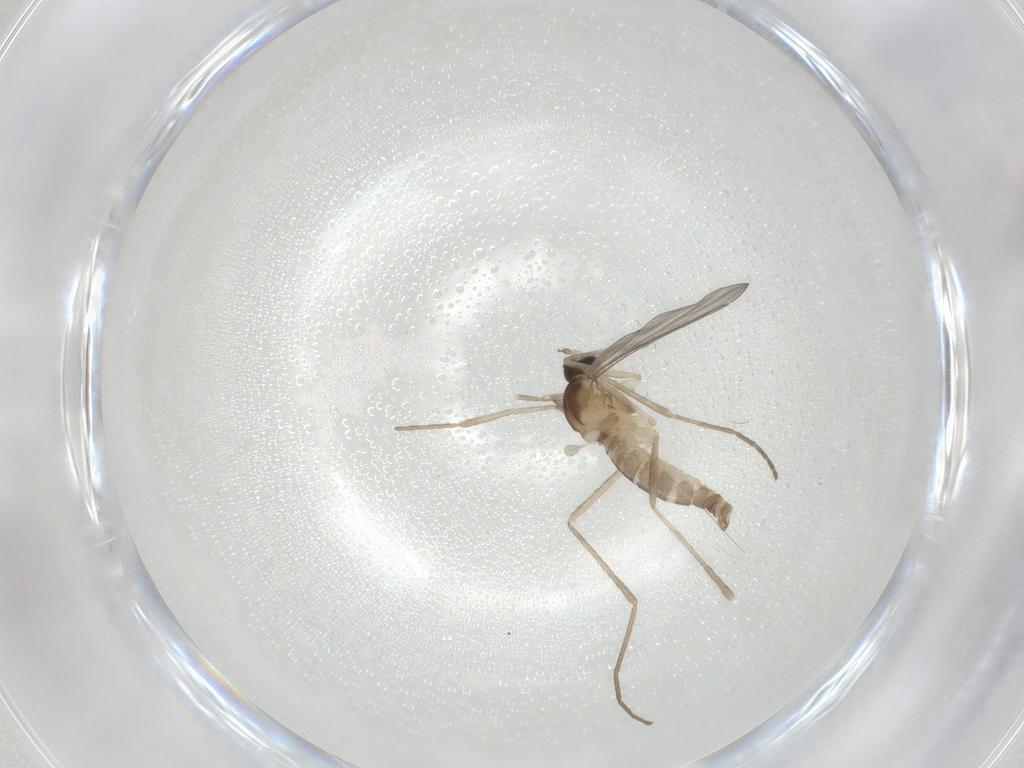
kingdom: Animalia
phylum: Arthropoda
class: Insecta
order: Diptera
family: Cecidomyiidae
